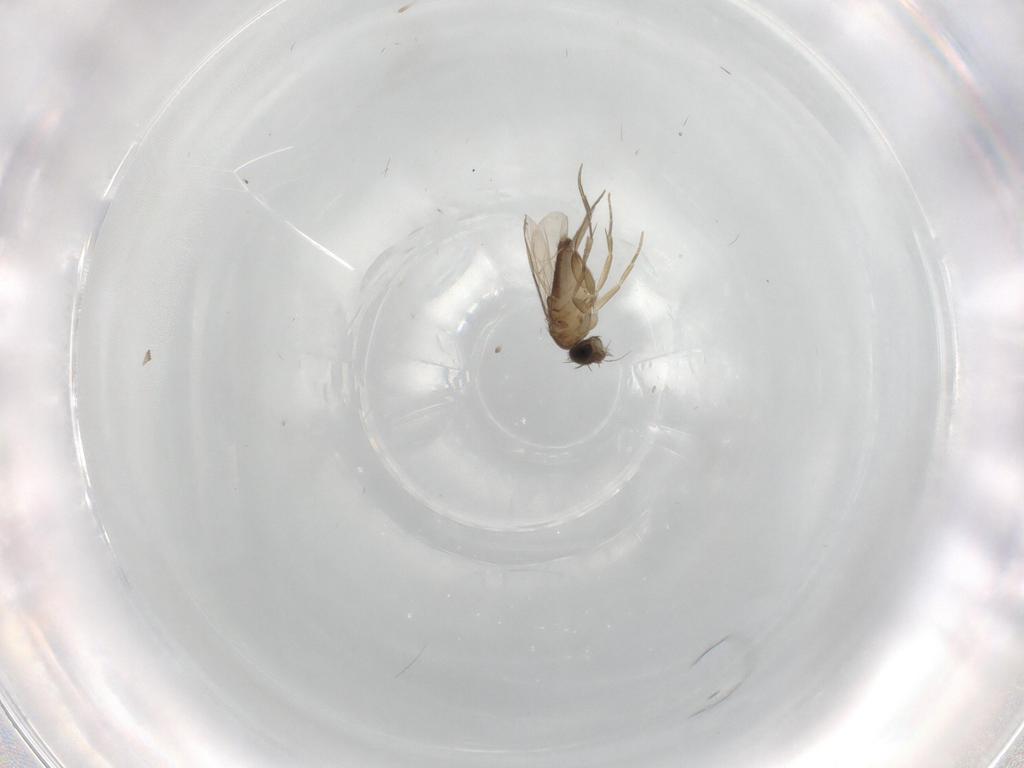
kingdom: Animalia
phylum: Arthropoda
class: Insecta
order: Diptera
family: Phoridae
